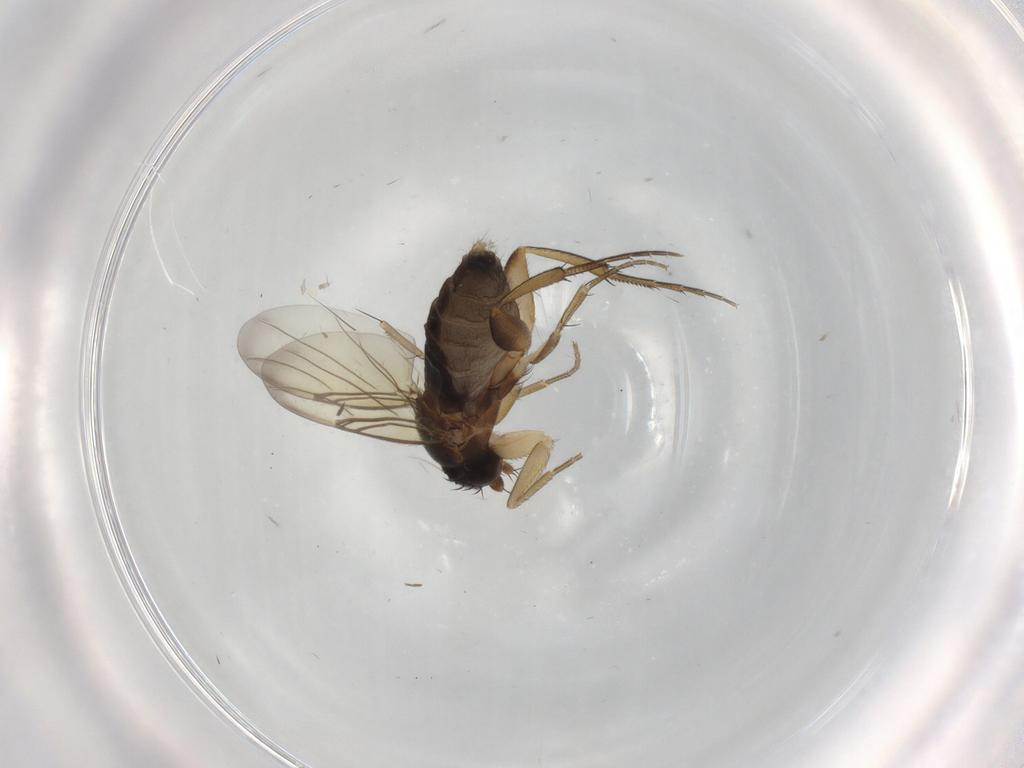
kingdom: Animalia
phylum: Arthropoda
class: Insecta
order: Diptera
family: Phoridae
